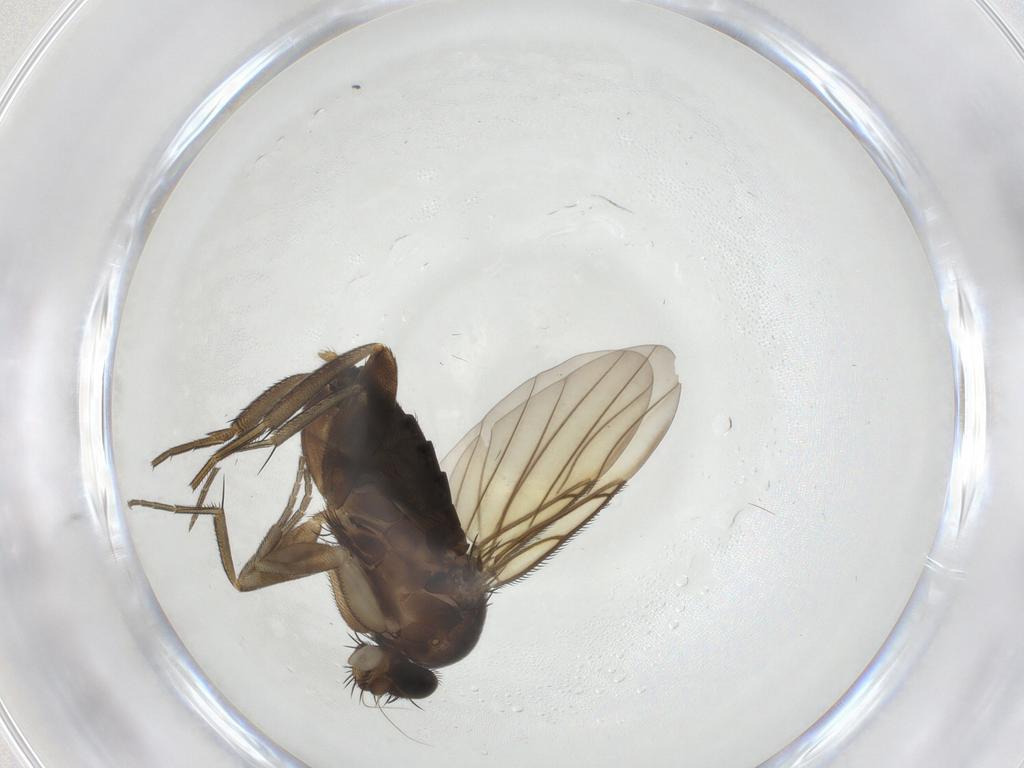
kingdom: Animalia
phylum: Arthropoda
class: Insecta
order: Diptera
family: Phoridae
